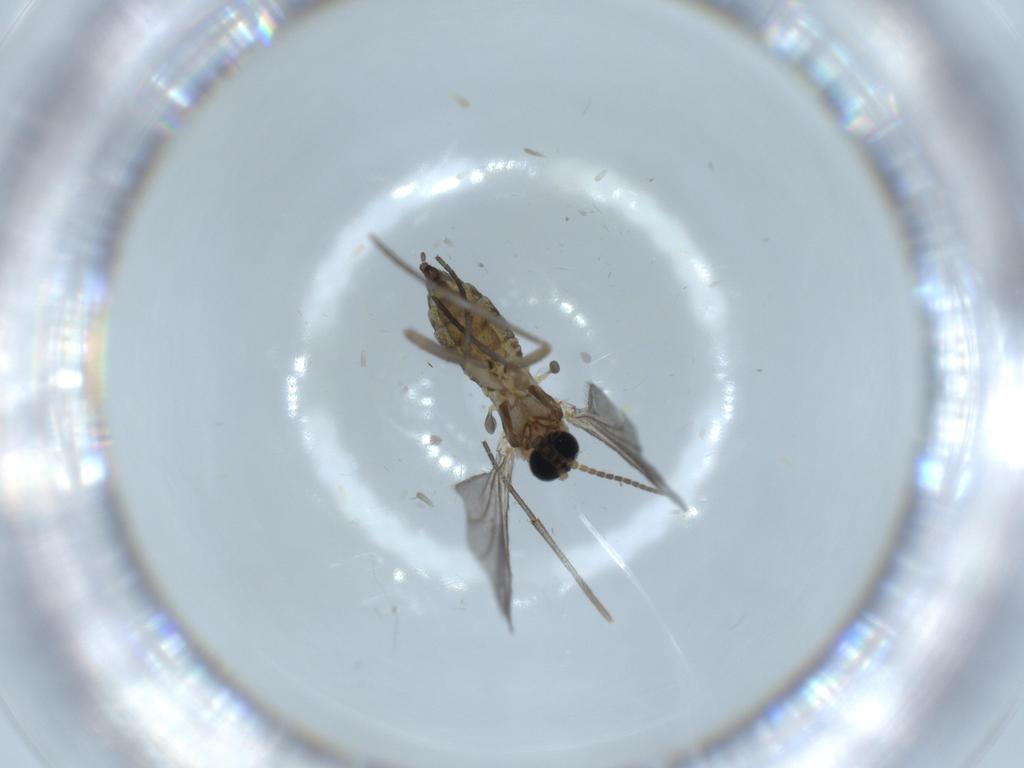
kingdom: Animalia
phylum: Arthropoda
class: Insecta
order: Diptera
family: Sciaridae
